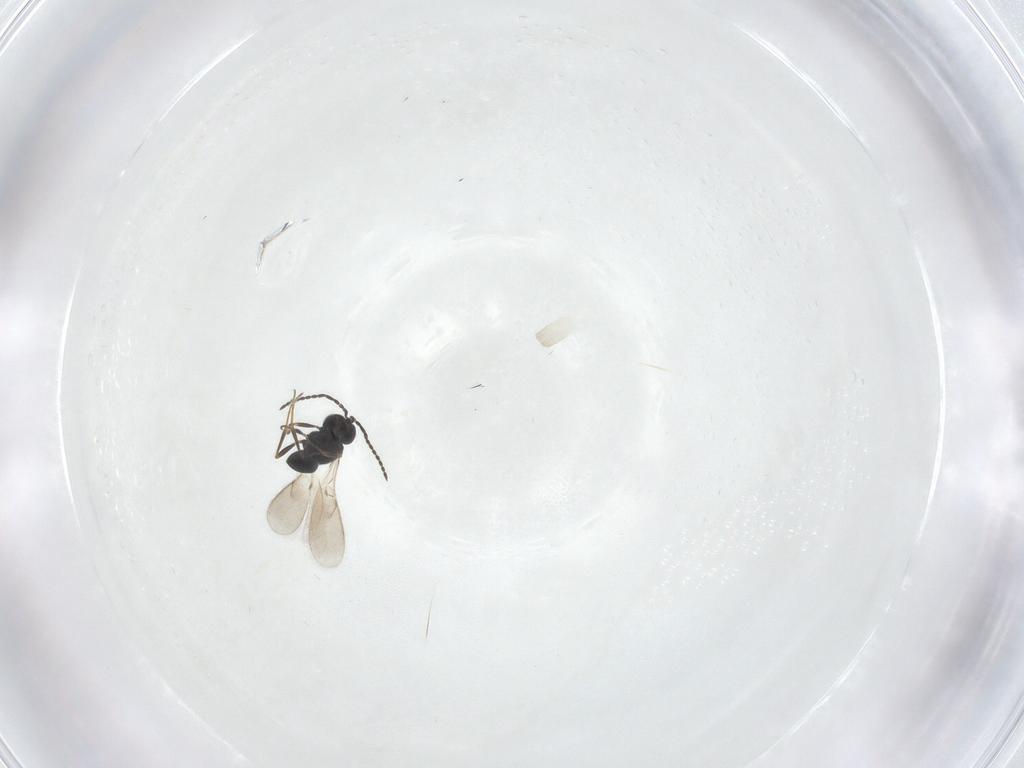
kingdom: Animalia
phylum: Arthropoda
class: Insecta
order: Hymenoptera
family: Scelionidae
